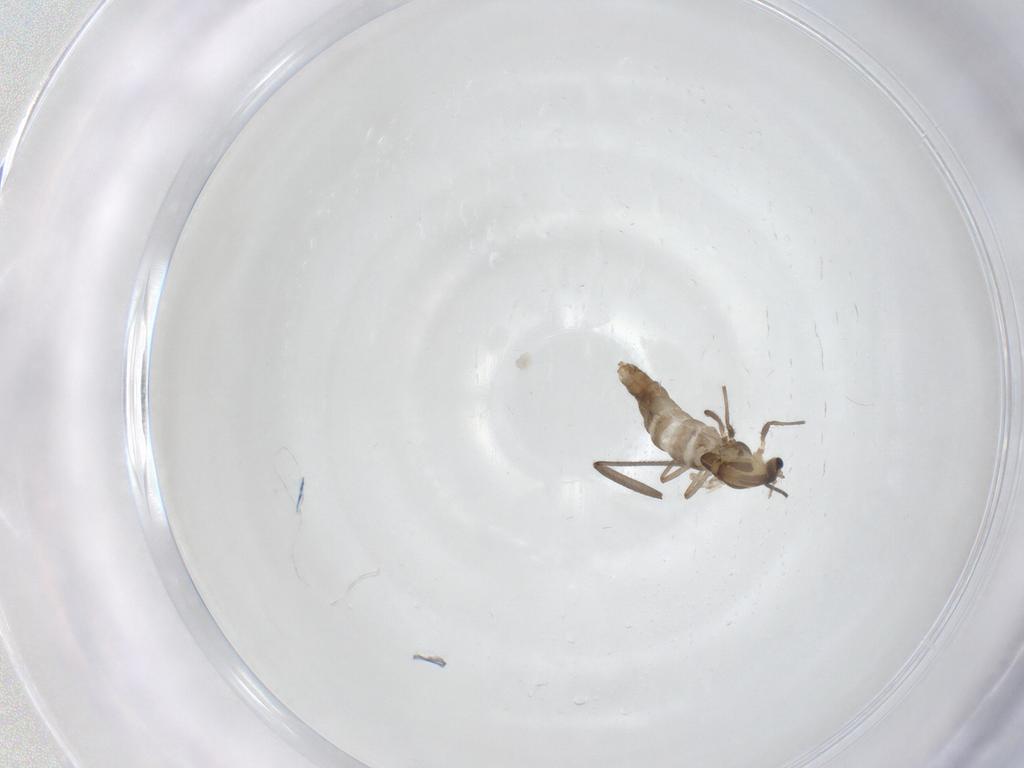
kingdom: Animalia
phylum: Arthropoda
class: Insecta
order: Diptera
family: Chironomidae
